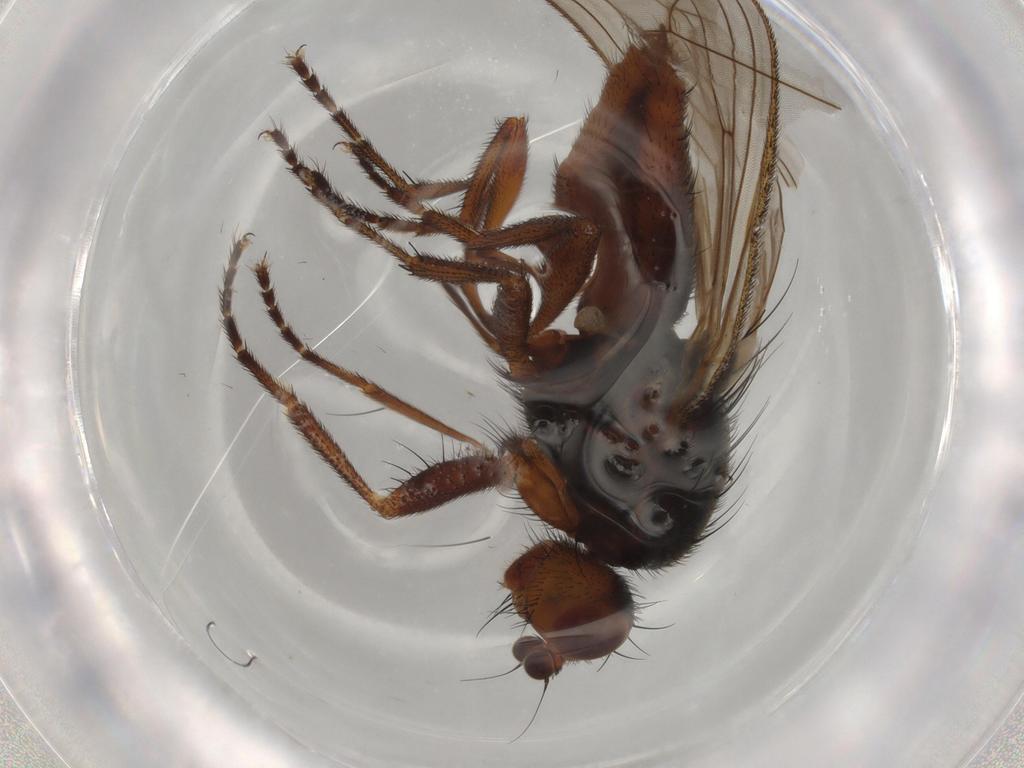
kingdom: Animalia
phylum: Arthropoda
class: Insecta
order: Diptera
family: Heleomyzidae
